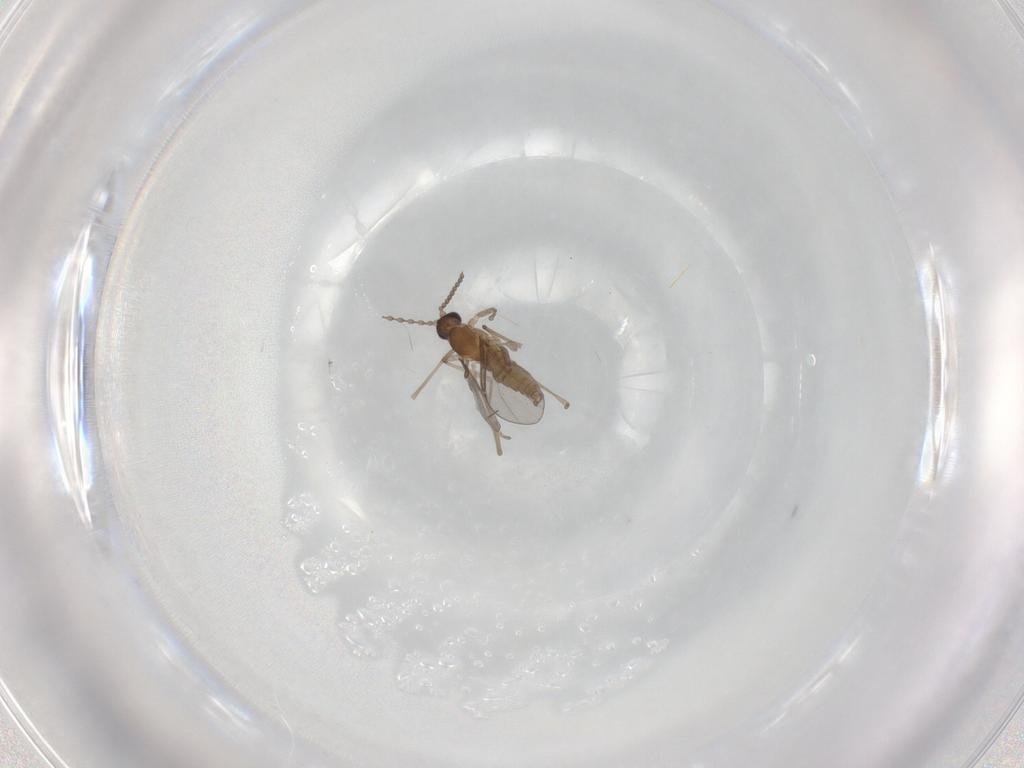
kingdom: Animalia
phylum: Arthropoda
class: Insecta
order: Diptera
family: Cecidomyiidae
